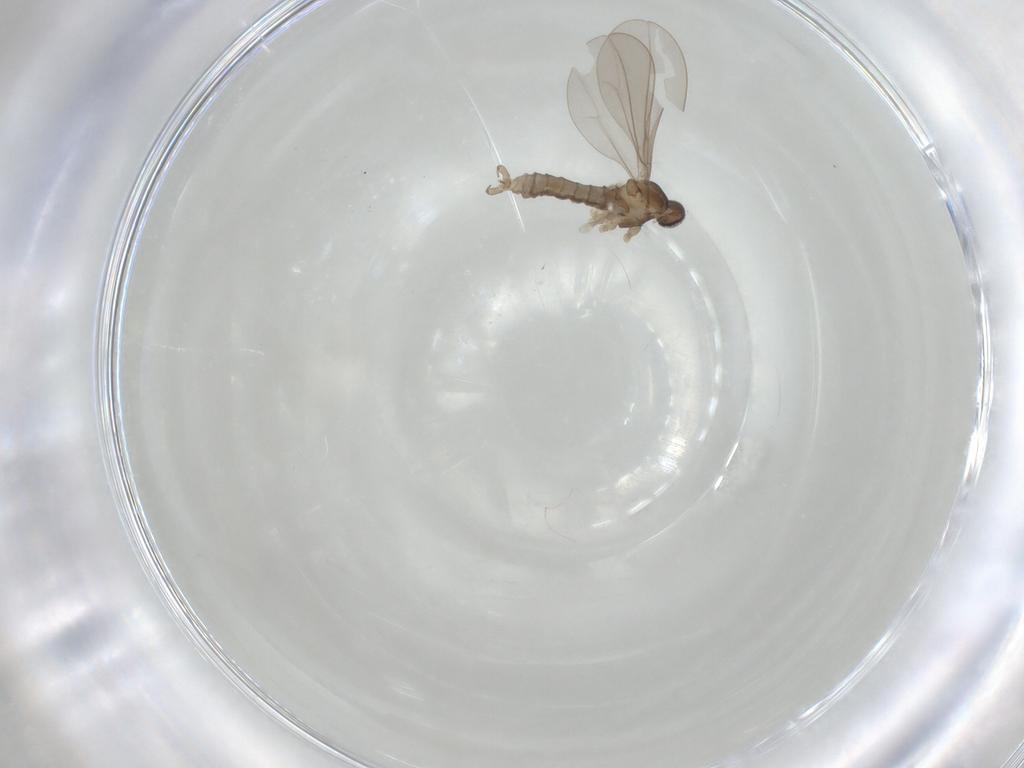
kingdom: Animalia
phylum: Arthropoda
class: Insecta
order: Diptera
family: Cecidomyiidae
